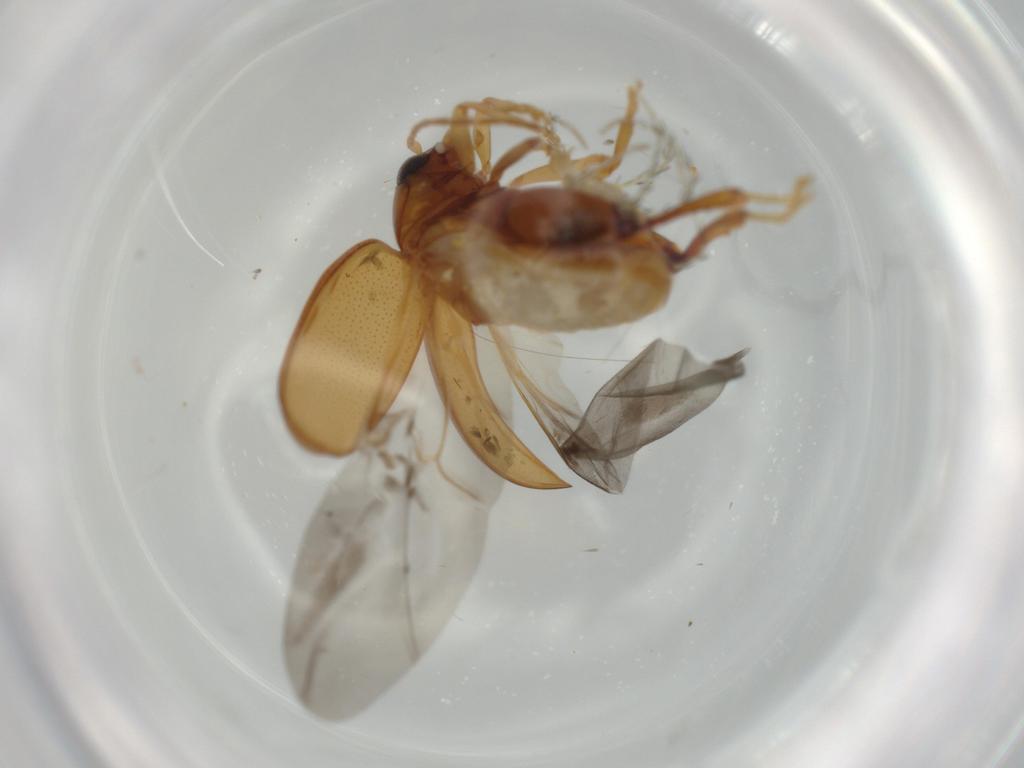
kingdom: Animalia
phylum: Arthropoda
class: Insecta
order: Coleoptera
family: Chrysomelidae
